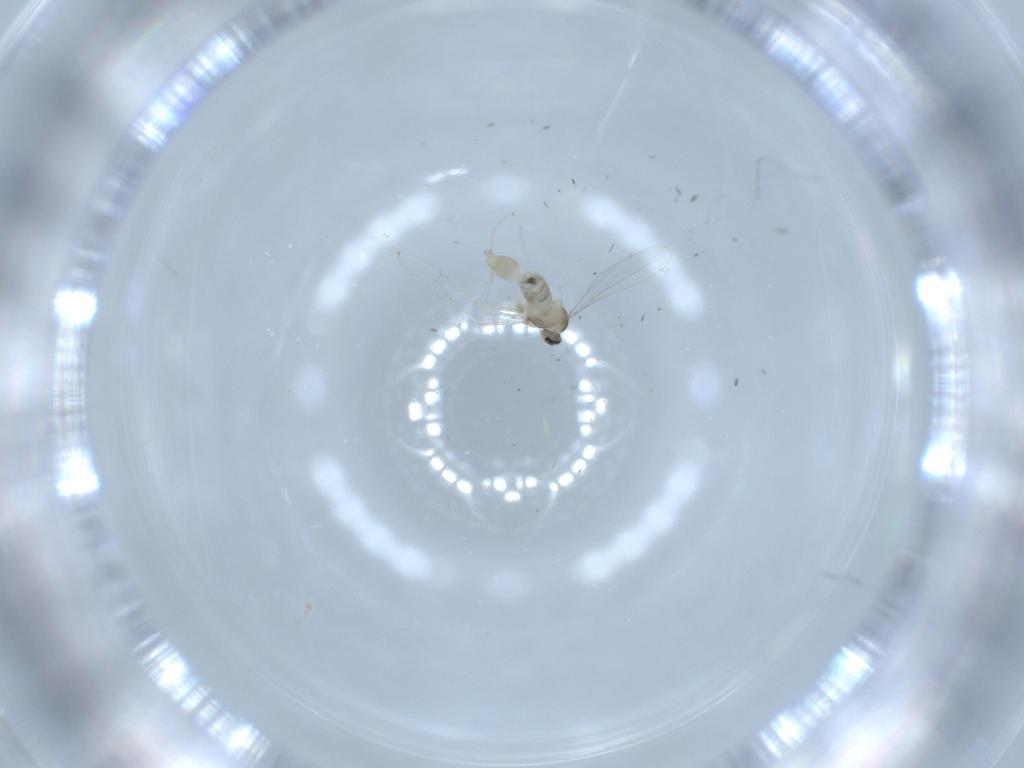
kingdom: Animalia
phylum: Arthropoda
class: Insecta
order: Diptera
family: Cecidomyiidae
